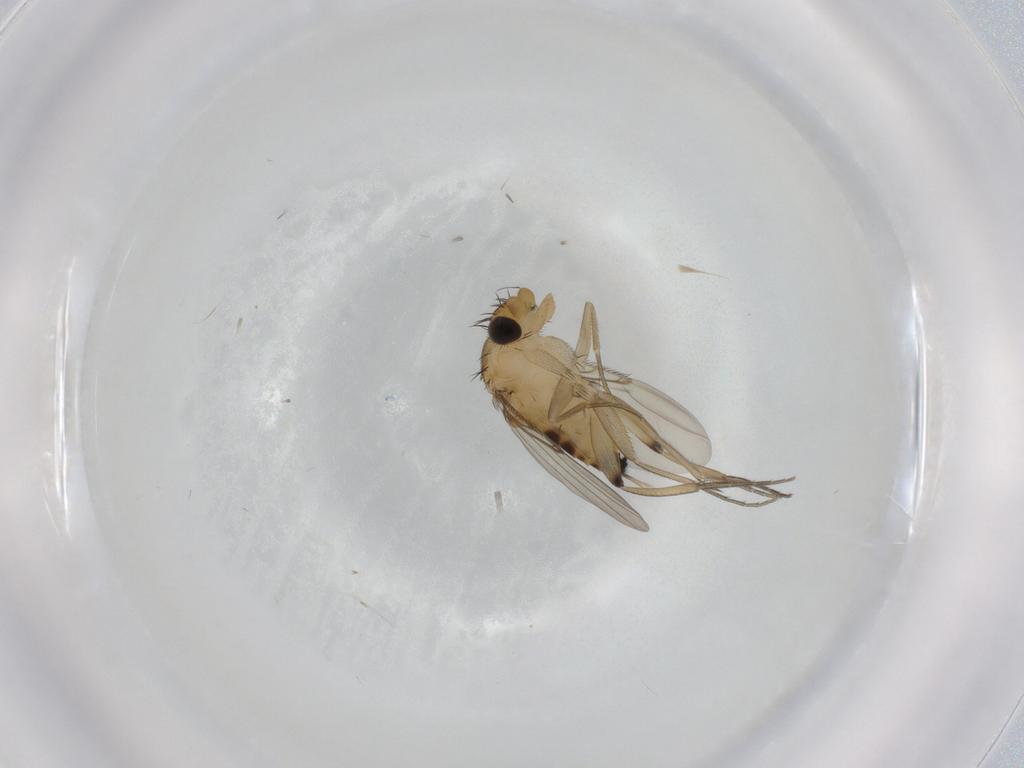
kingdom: Animalia
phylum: Arthropoda
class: Insecta
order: Diptera
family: Phoridae
